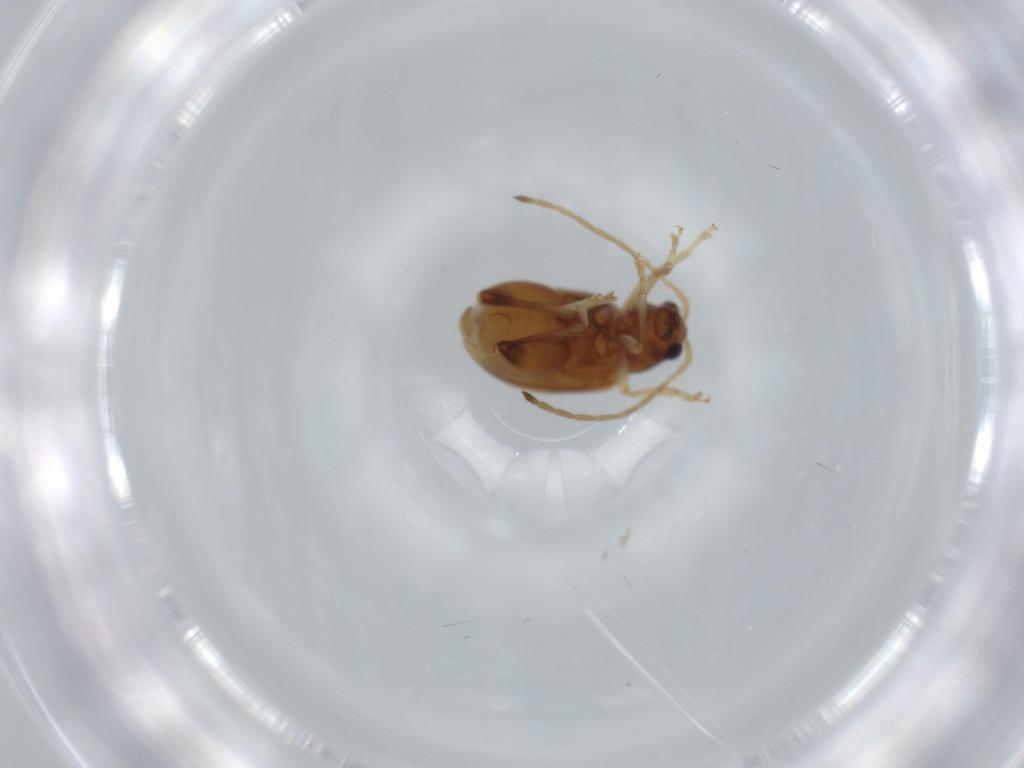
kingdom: Animalia
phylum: Arthropoda
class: Insecta
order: Coleoptera
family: Chrysomelidae
